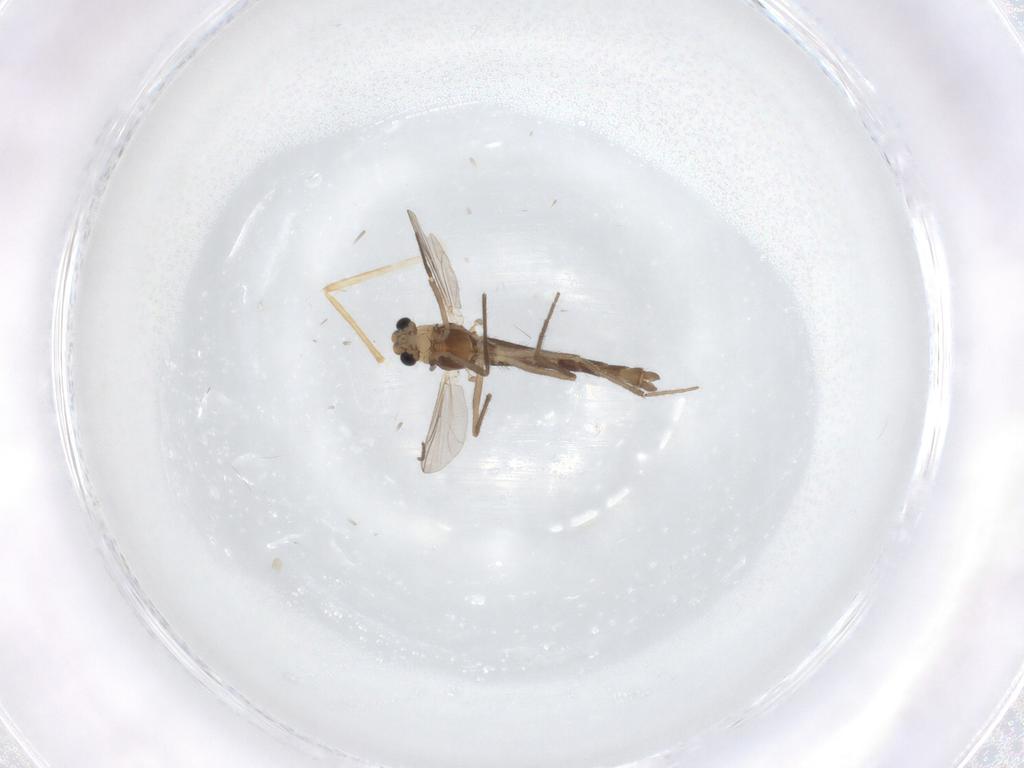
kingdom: Animalia
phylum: Arthropoda
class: Insecta
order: Diptera
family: Chironomidae
